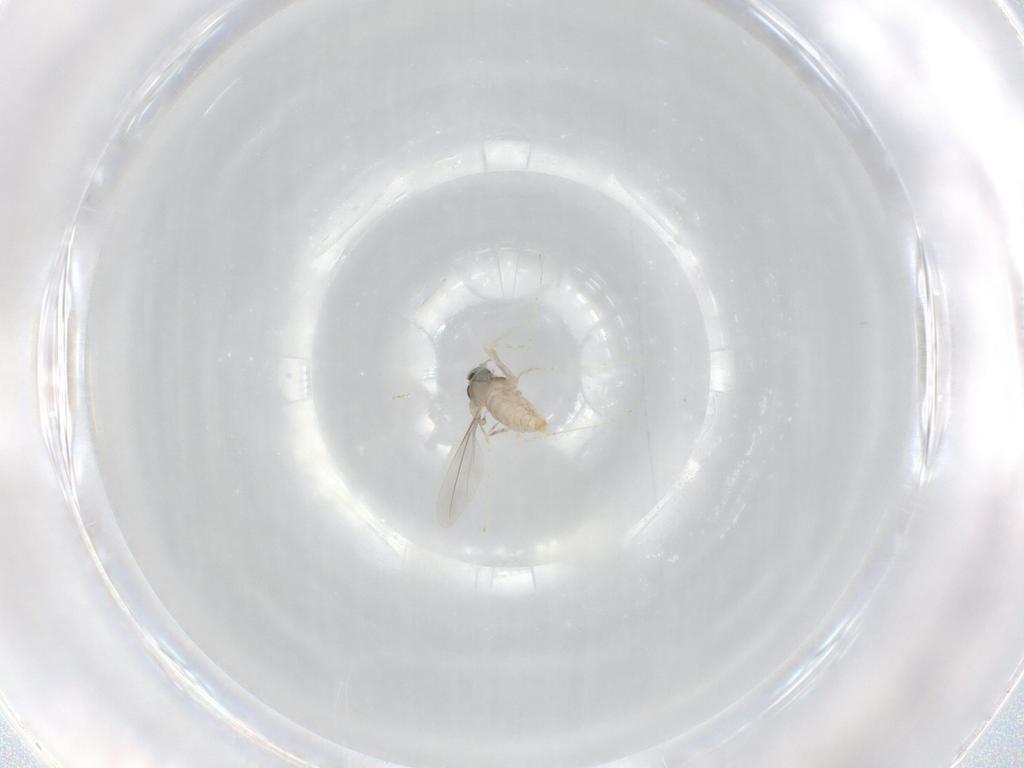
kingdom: Animalia
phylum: Arthropoda
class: Insecta
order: Diptera
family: Cecidomyiidae
